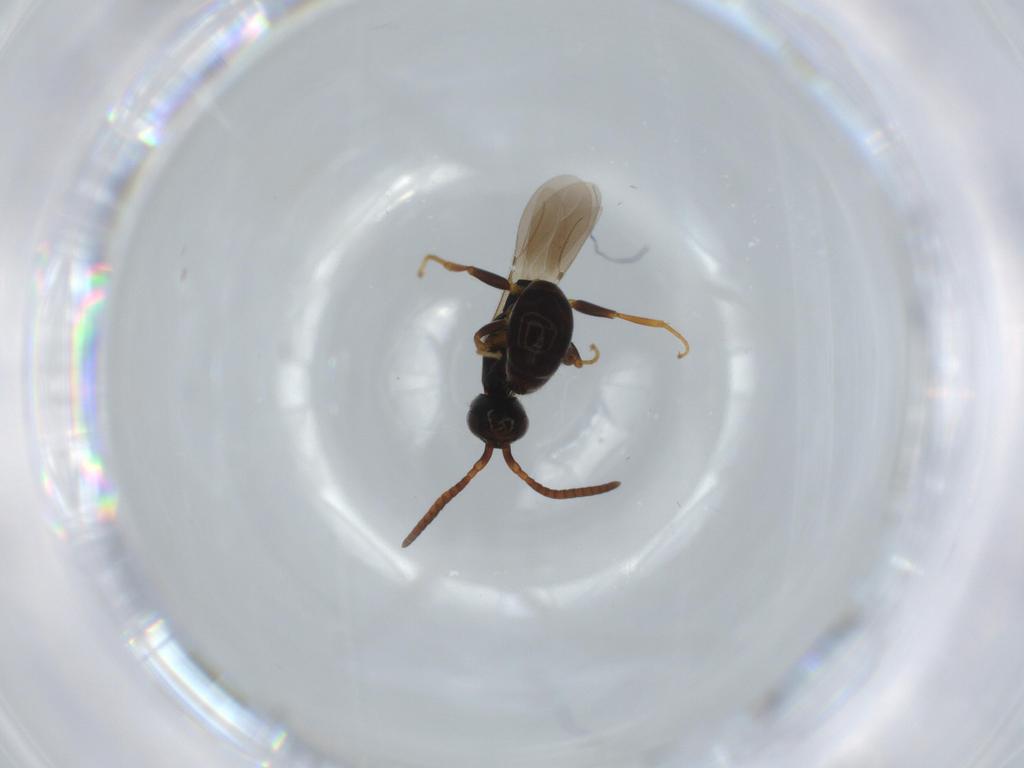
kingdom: Animalia
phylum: Arthropoda
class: Insecta
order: Hymenoptera
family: Bethylidae
